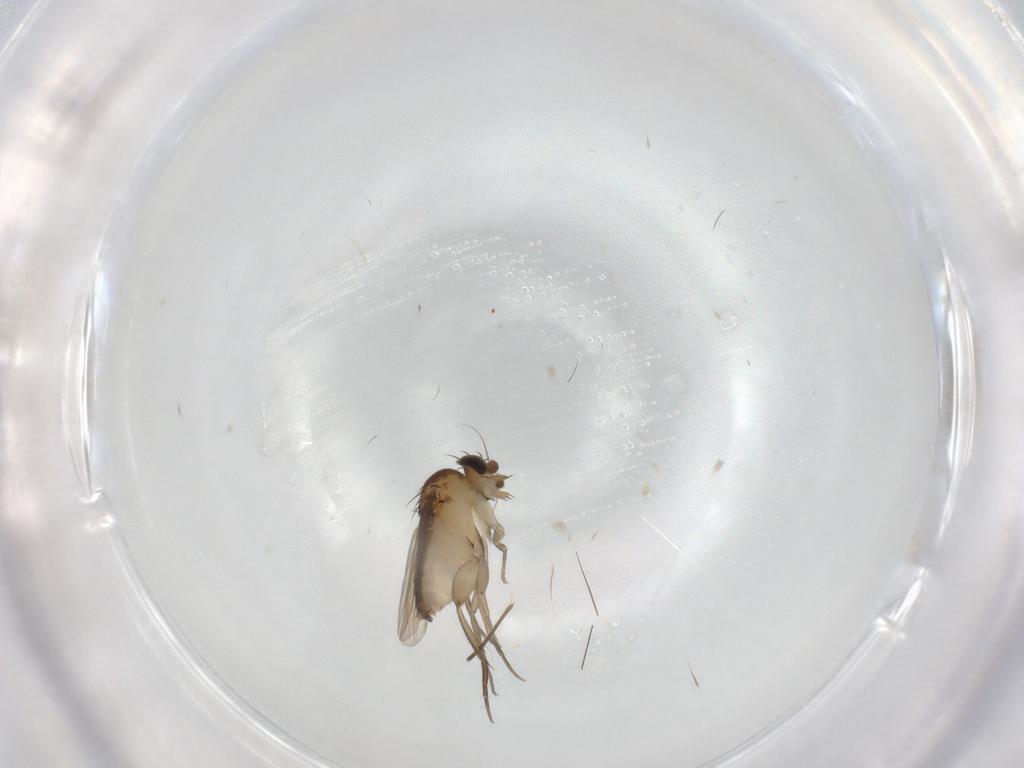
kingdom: Animalia
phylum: Arthropoda
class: Insecta
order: Diptera
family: Phoridae
